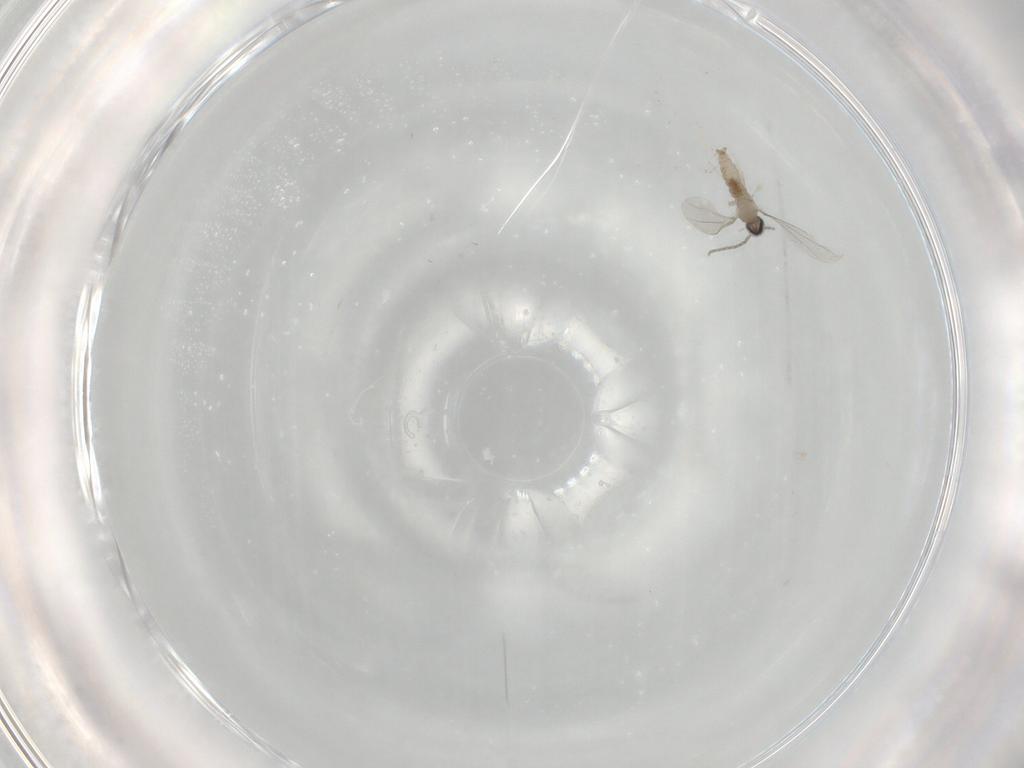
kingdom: Animalia
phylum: Arthropoda
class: Insecta
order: Diptera
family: Cecidomyiidae
